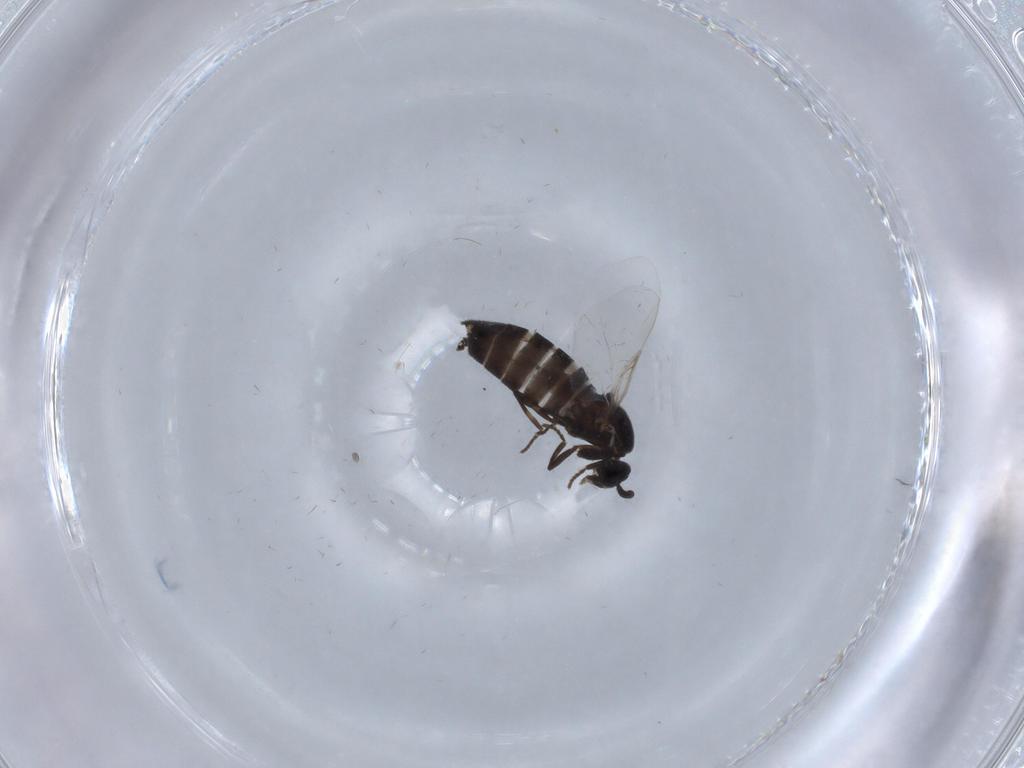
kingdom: Animalia
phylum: Arthropoda
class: Insecta
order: Diptera
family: Scatopsidae
